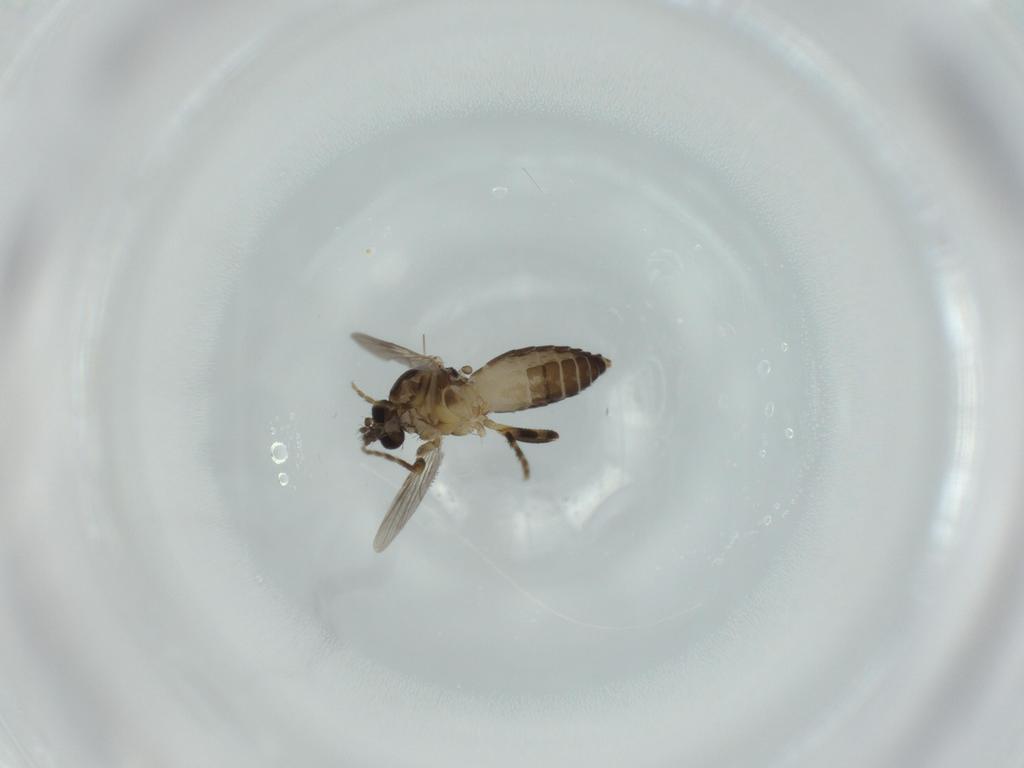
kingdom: Animalia
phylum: Arthropoda
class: Insecta
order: Diptera
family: Ceratopogonidae
